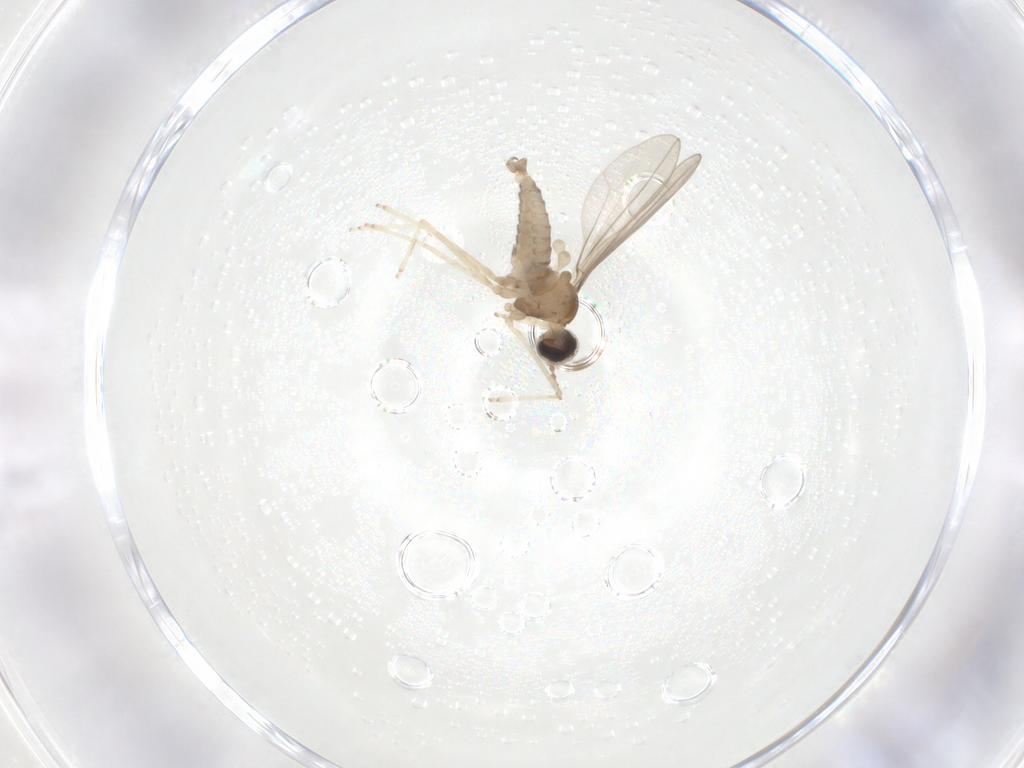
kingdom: Animalia
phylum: Arthropoda
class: Insecta
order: Diptera
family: Cecidomyiidae
